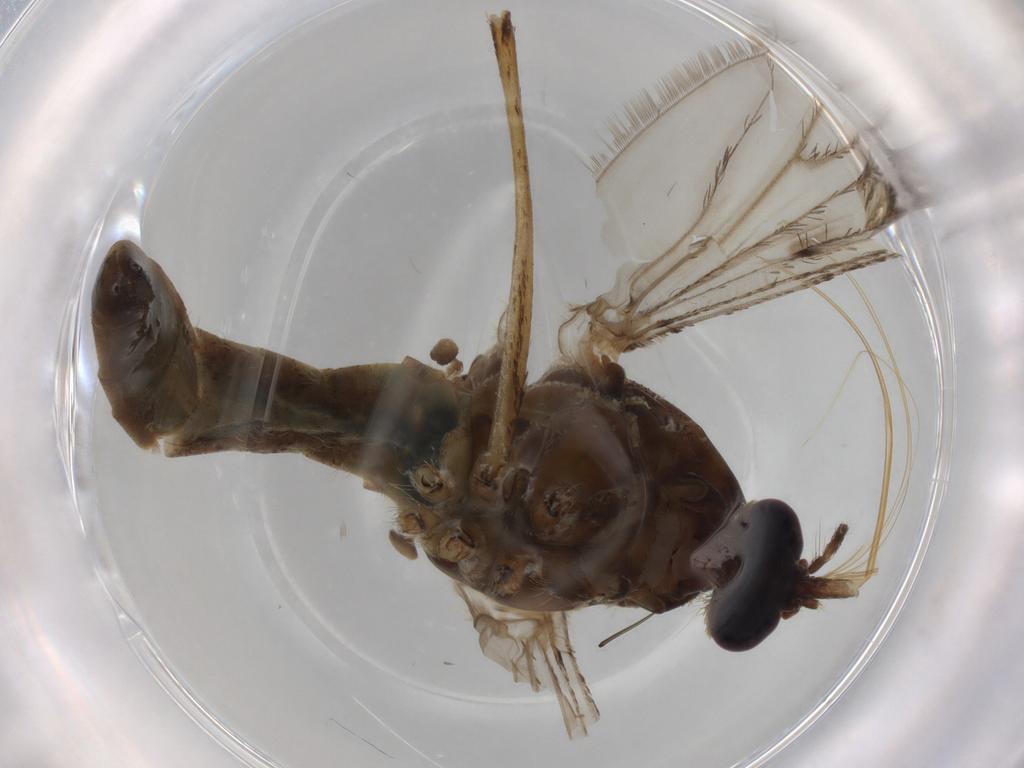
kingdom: Animalia
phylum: Arthropoda
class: Insecta
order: Diptera
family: Culicidae
